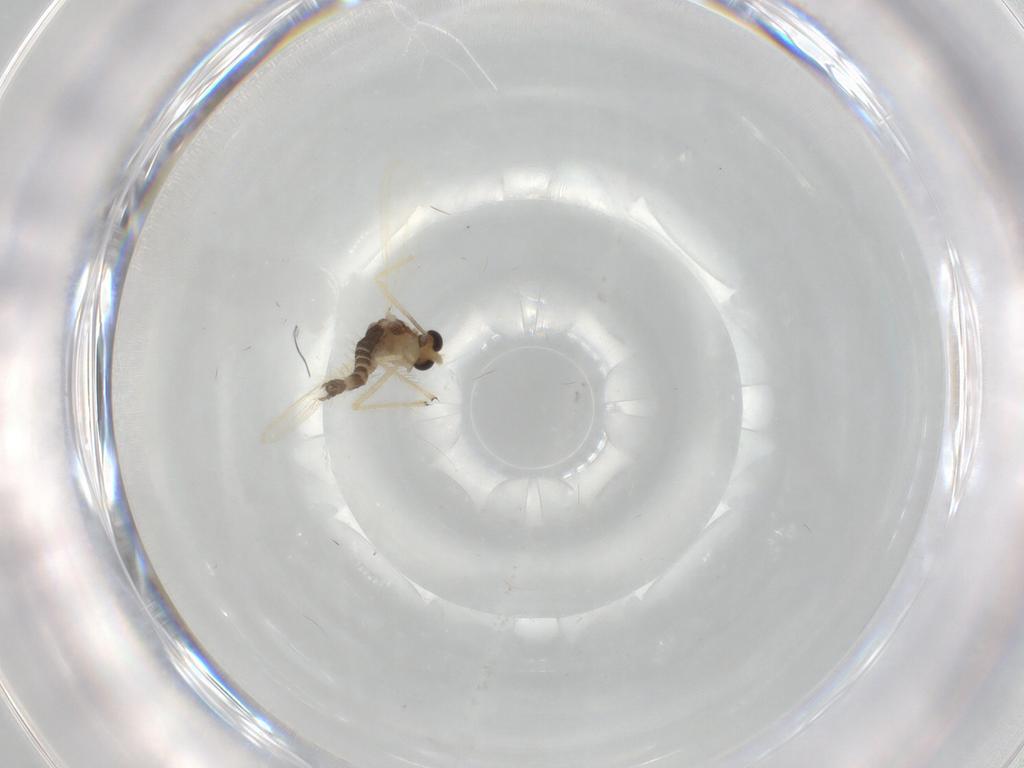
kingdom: Animalia
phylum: Arthropoda
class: Insecta
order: Diptera
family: Chironomidae
